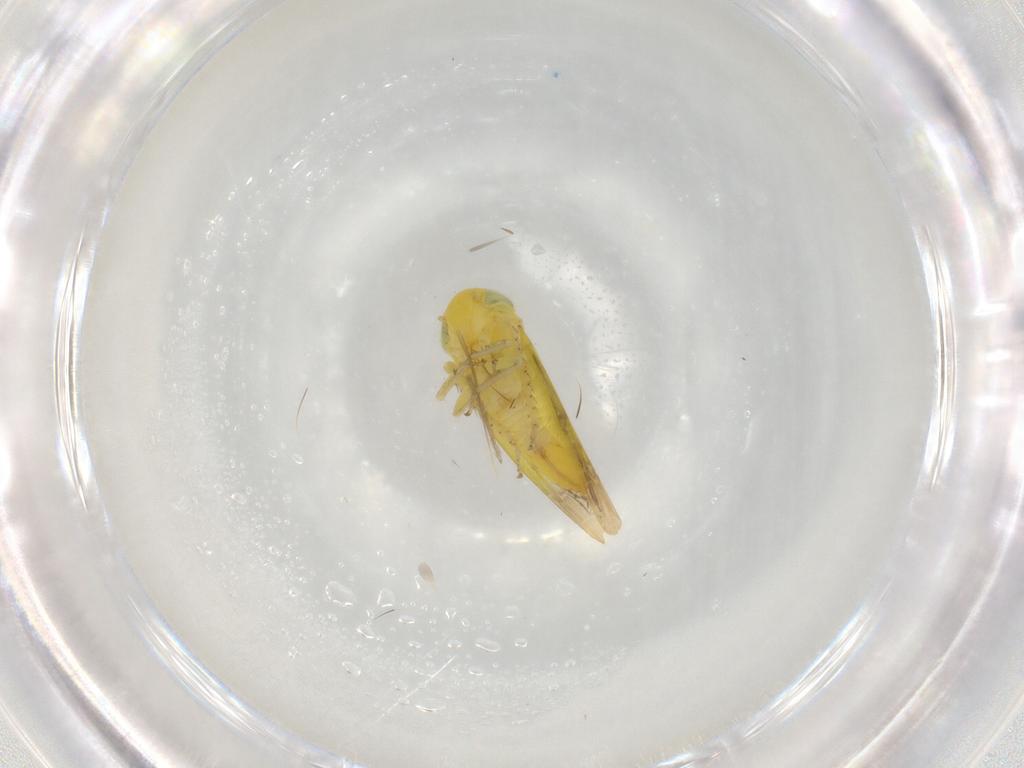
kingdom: Animalia
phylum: Arthropoda
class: Insecta
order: Hemiptera
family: Cicadellidae
